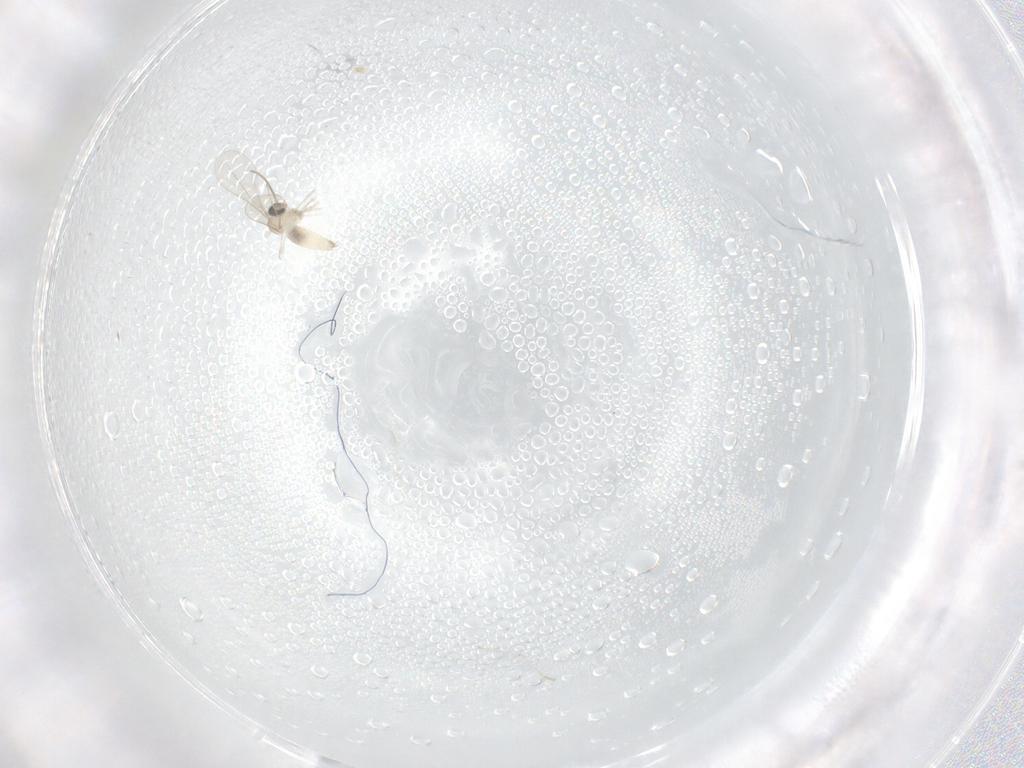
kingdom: Animalia
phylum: Arthropoda
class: Insecta
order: Diptera
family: Cecidomyiidae
